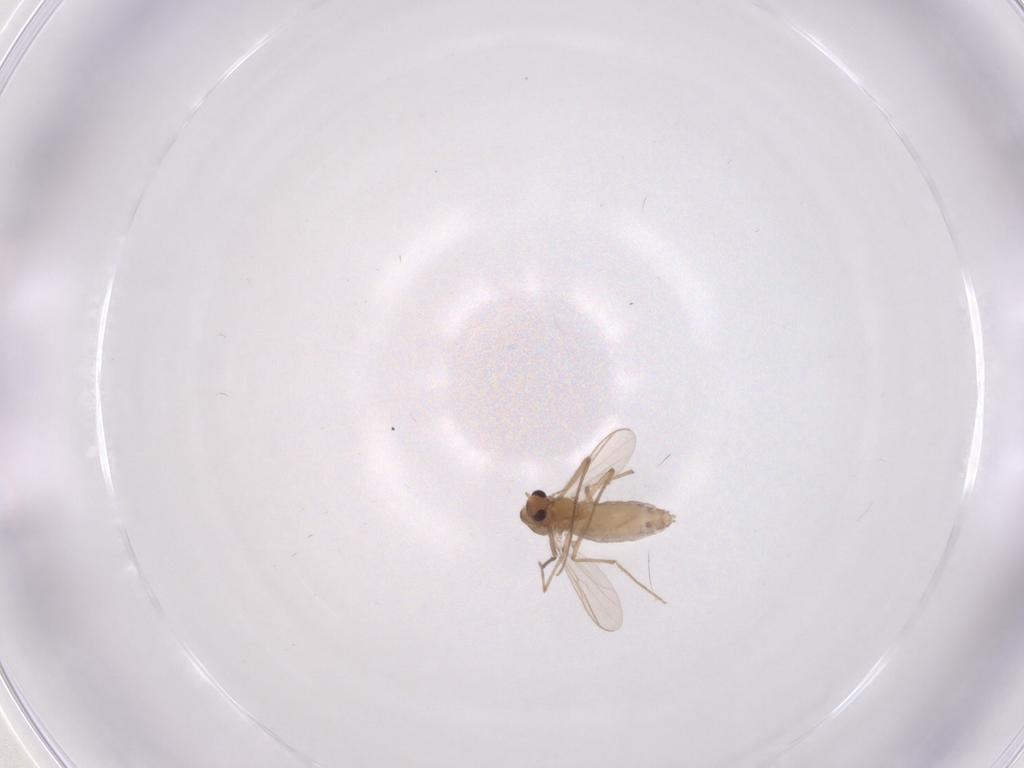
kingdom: Animalia
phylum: Arthropoda
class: Insecta
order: Diptera
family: Chironomidae
